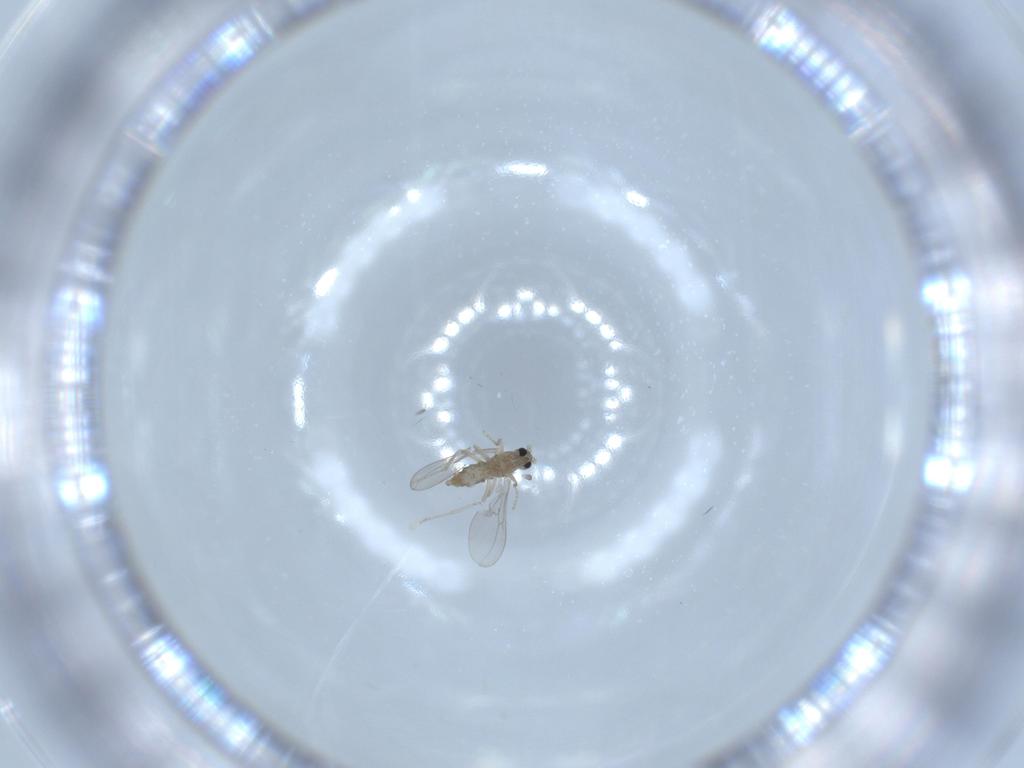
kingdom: Animalia
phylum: Arthropoda
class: Insecta
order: Diptera
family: Cecidomyiidae
